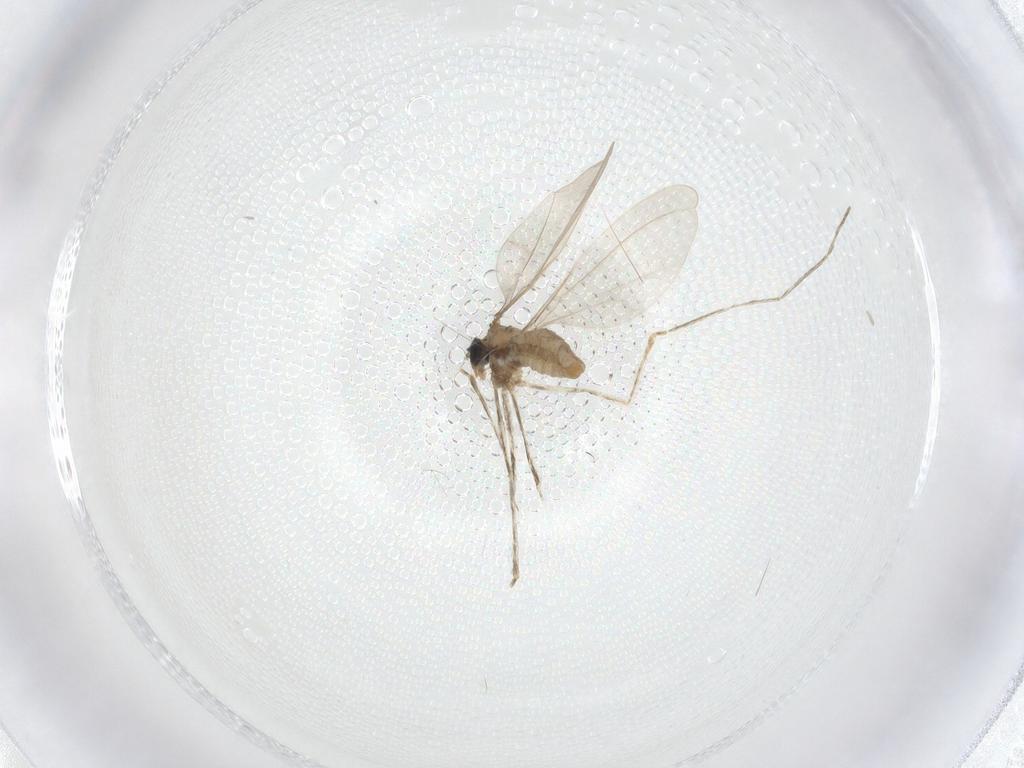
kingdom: Animalia
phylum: Arthropoda
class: Insecta
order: Diptera
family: Cecidomyiidae
